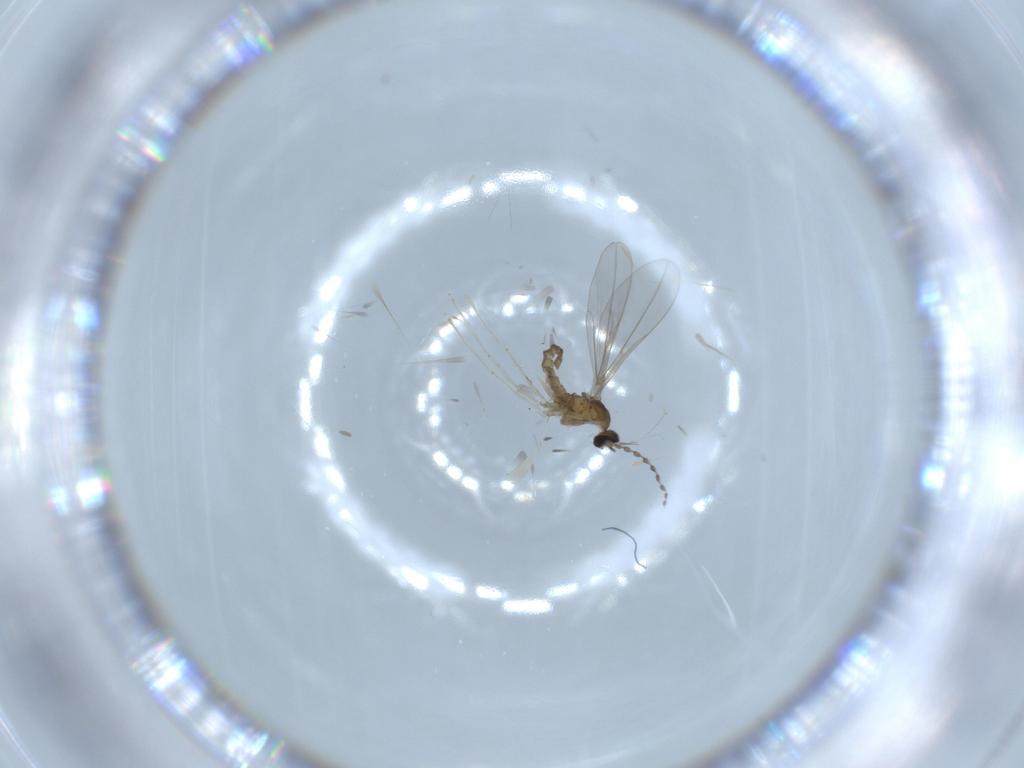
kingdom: Animalia
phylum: Arthropoda
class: Insecta
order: Diptera
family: Cecidomyiidae
